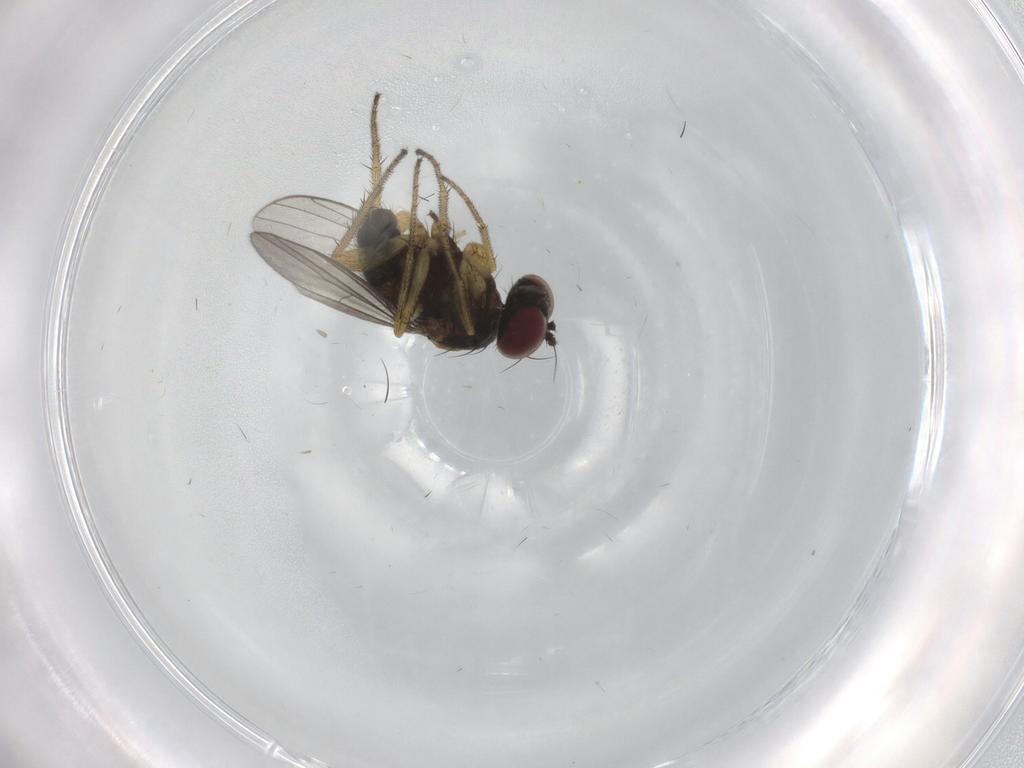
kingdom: Animalia
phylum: Arthropoda
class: Insecta
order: Diptera
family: Chironomidae
